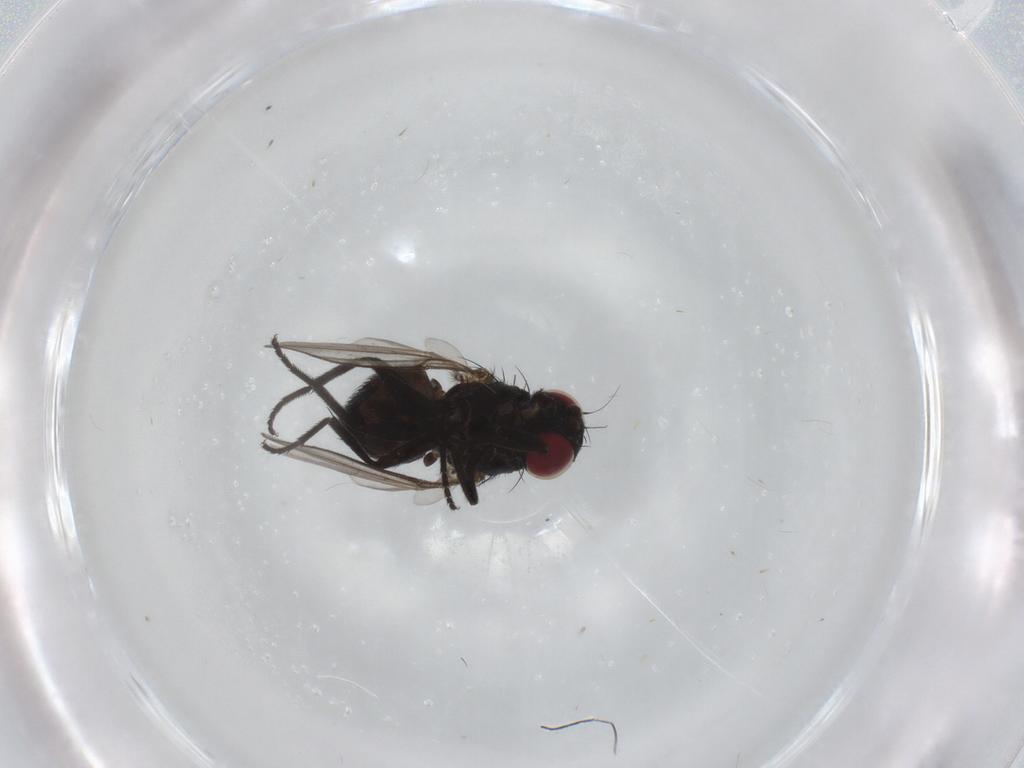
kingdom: Animalia
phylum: Arthropoda
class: Insecta
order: Diptera
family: Agromyzidae
